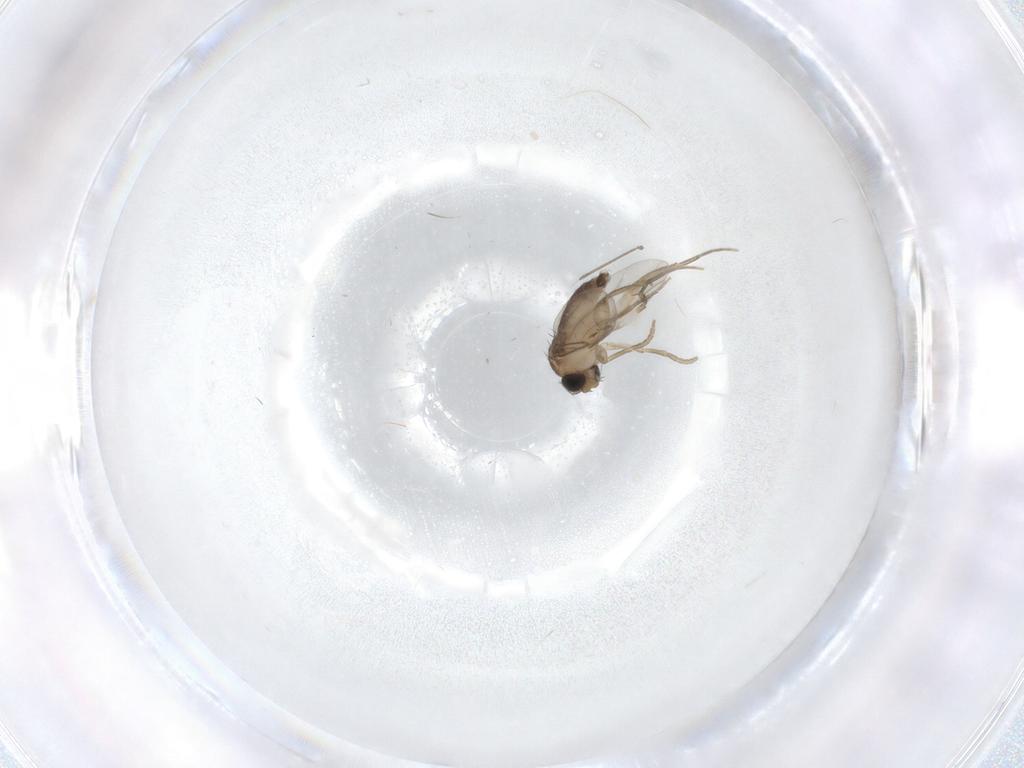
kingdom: Animalia
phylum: Arthropoda
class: Insecta
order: Diptera
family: Phoridae
